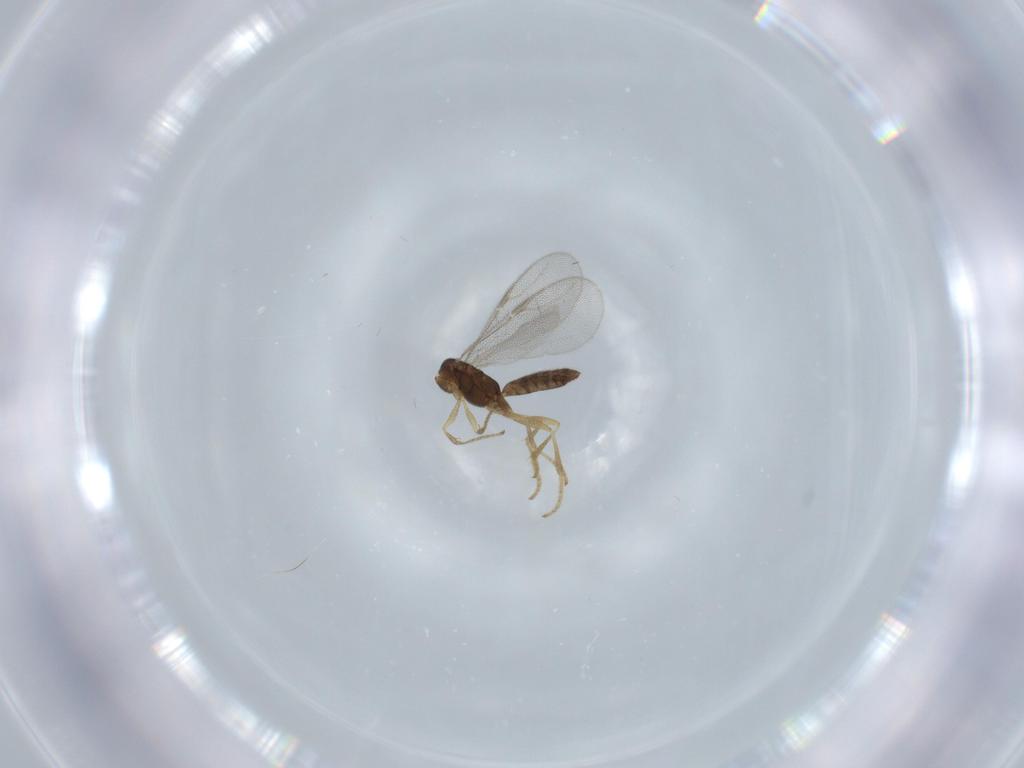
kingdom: Animalia
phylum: Arthropoda
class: Insecta
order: Hymenoptera
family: Dryinidae
